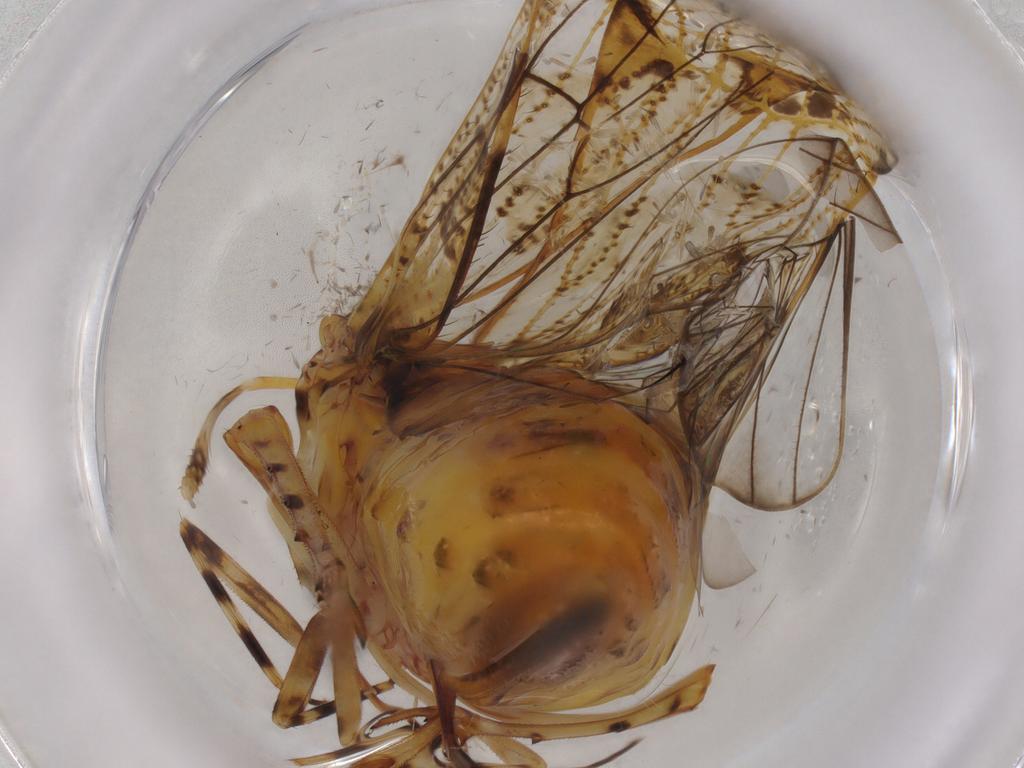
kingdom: Animalia
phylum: Arthropoda
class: Insecta
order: Hemiptera
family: Delphacidae
